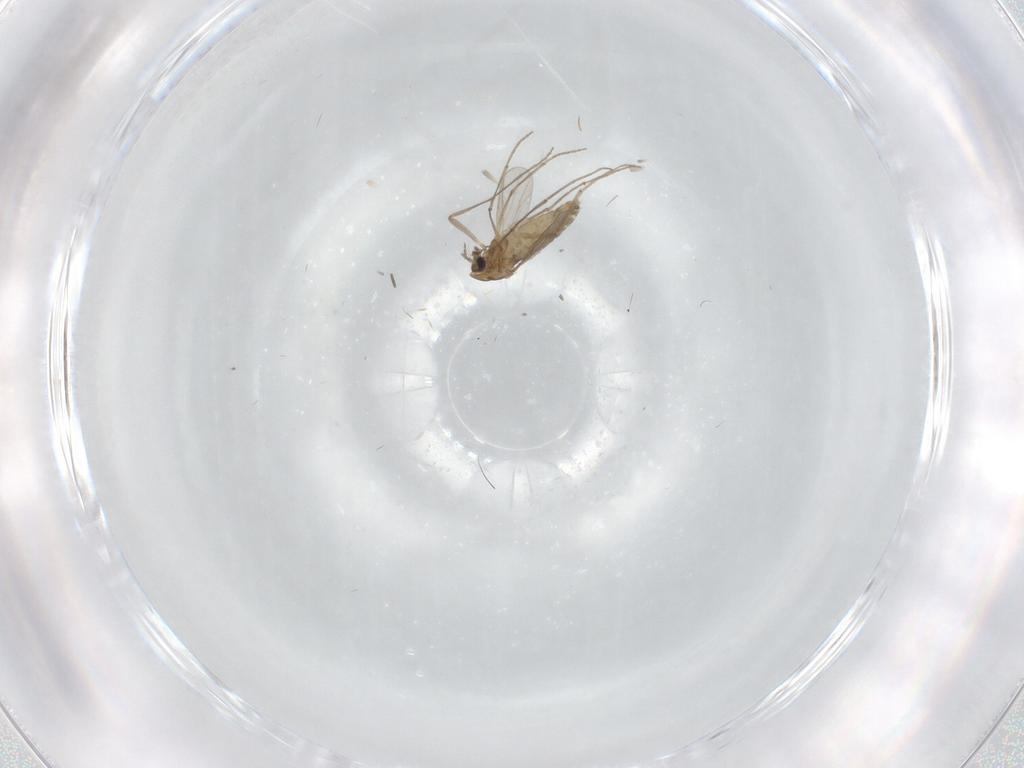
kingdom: Animalia
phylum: Arthropoda
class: Insecta
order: Diptera
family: Chironomidae
